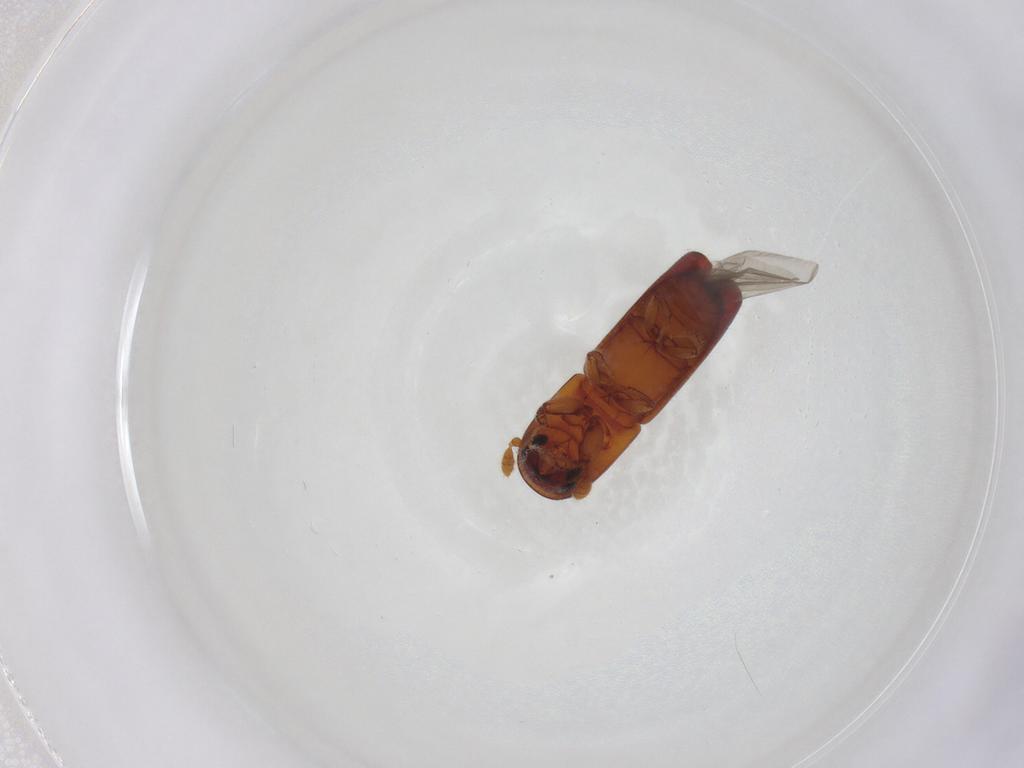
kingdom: Animalia
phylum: Arthropoda
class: Insecta
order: Coleoptera
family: Curculionidae
